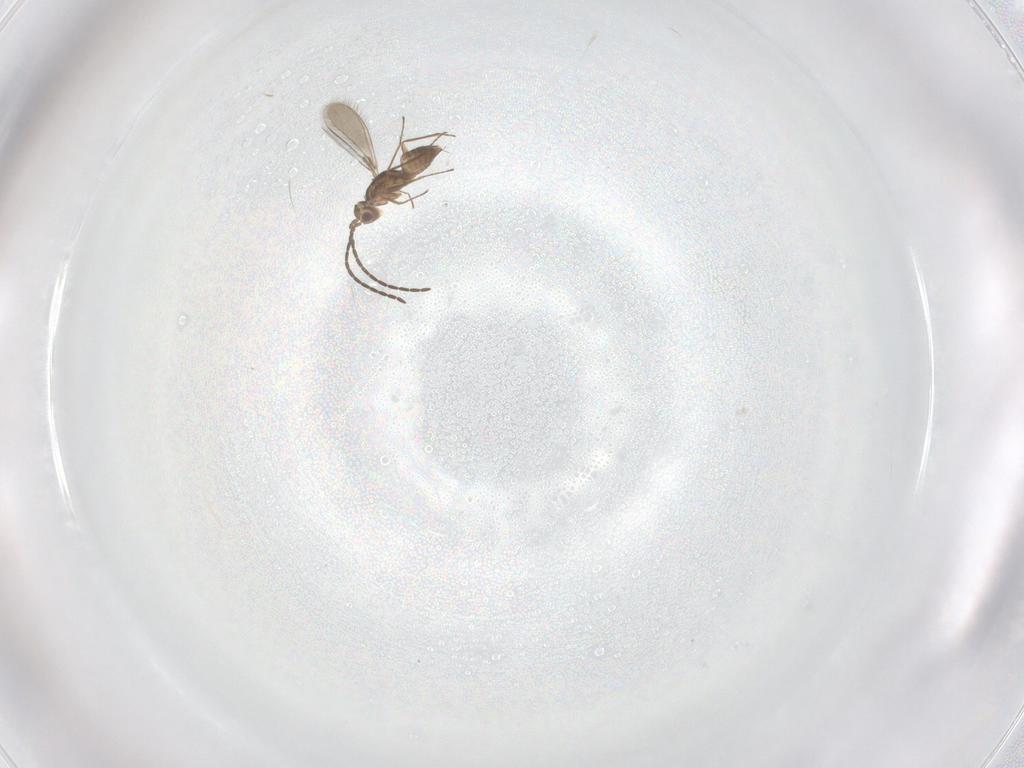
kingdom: Animalia
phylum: Arthropoda
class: Insecta
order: Hymenoptera
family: Mymaridae
